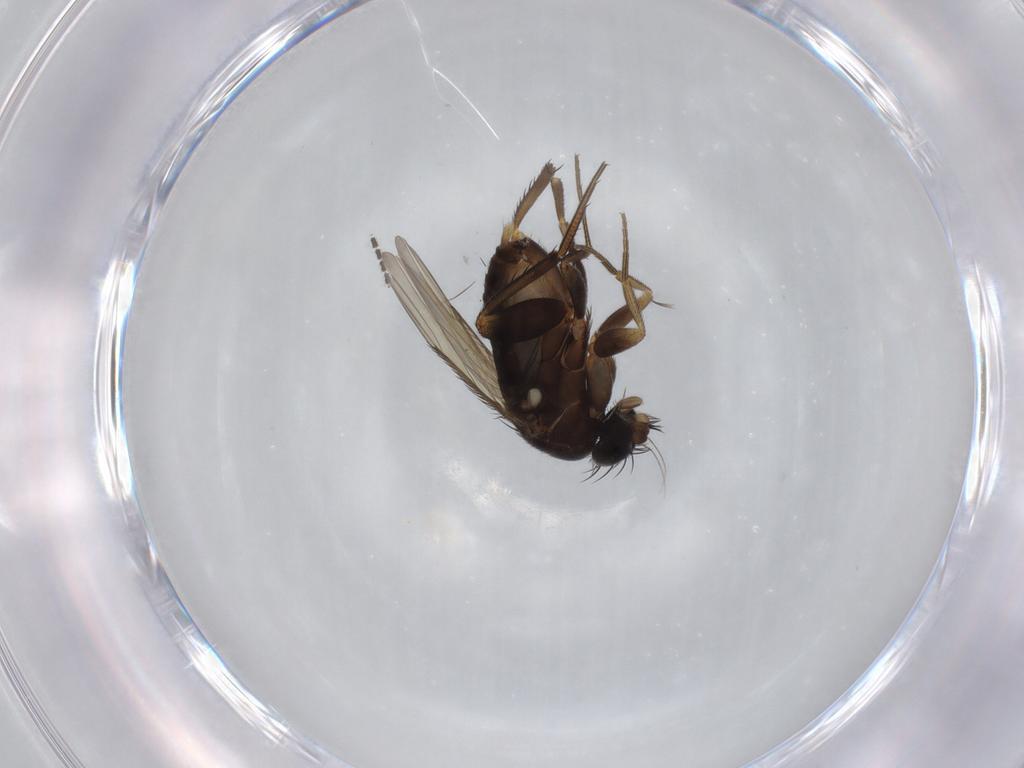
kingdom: Animalia
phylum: Arthropoda
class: Insecta
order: Diptera
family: Phoridae
